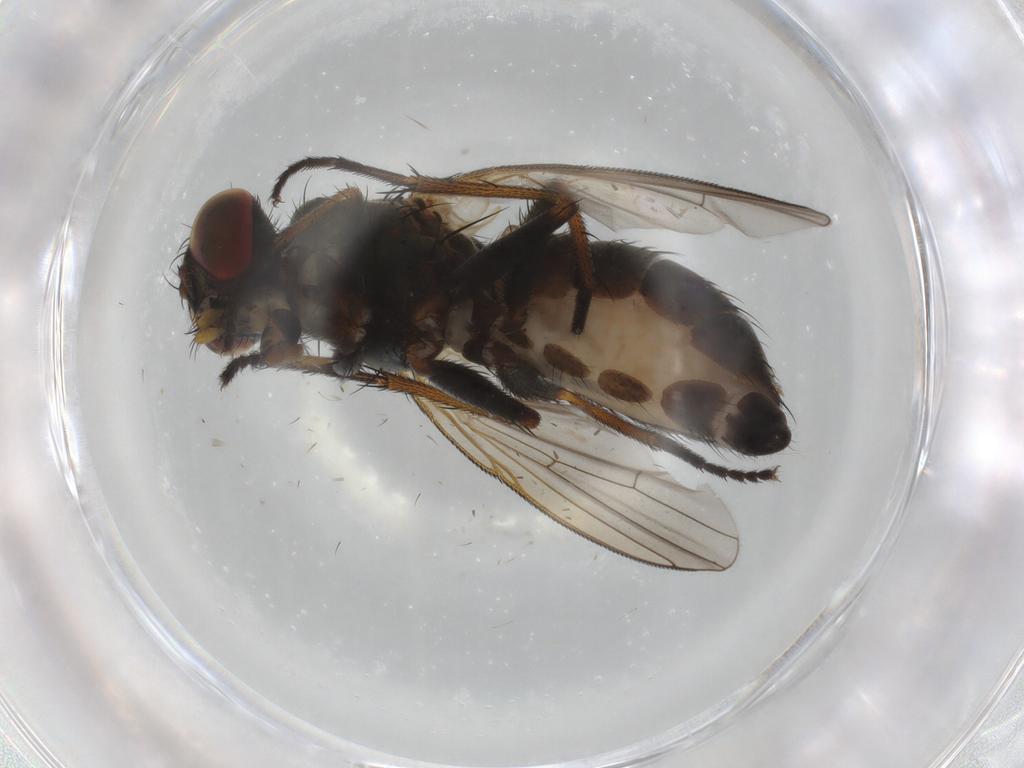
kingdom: Animalia
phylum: Arthropoda
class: Insecta
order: Diptera
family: Muscidae
